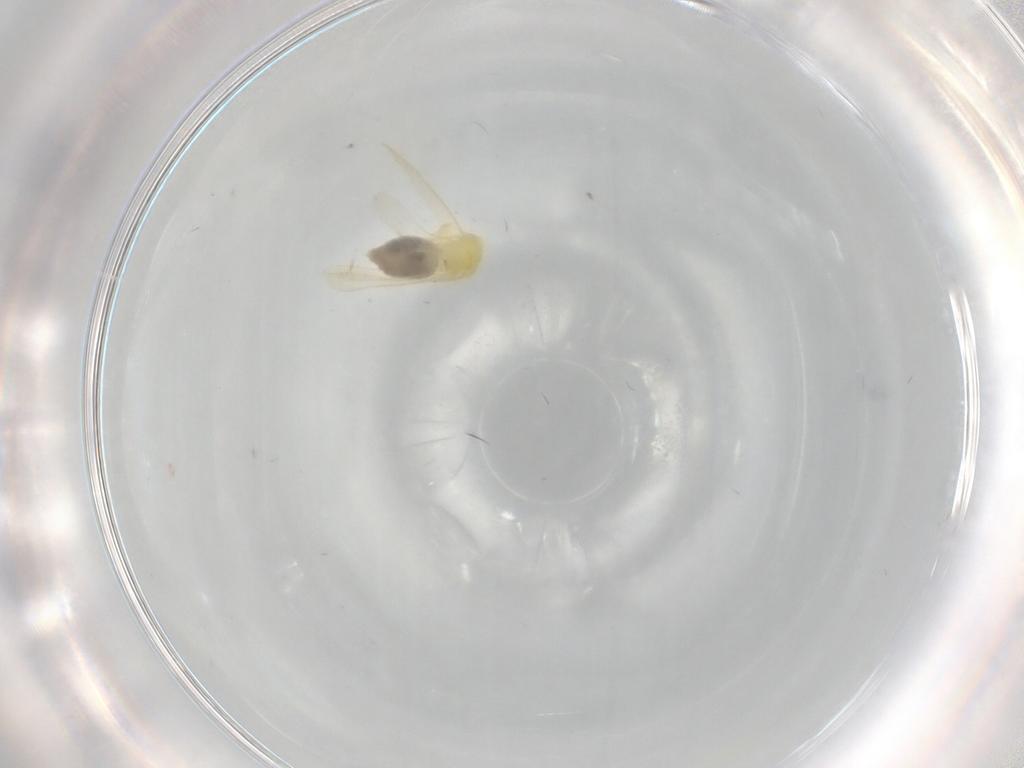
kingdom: Animalia
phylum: Arthropoda
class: Insecta
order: Hemiptera
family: Aleyrodidae
